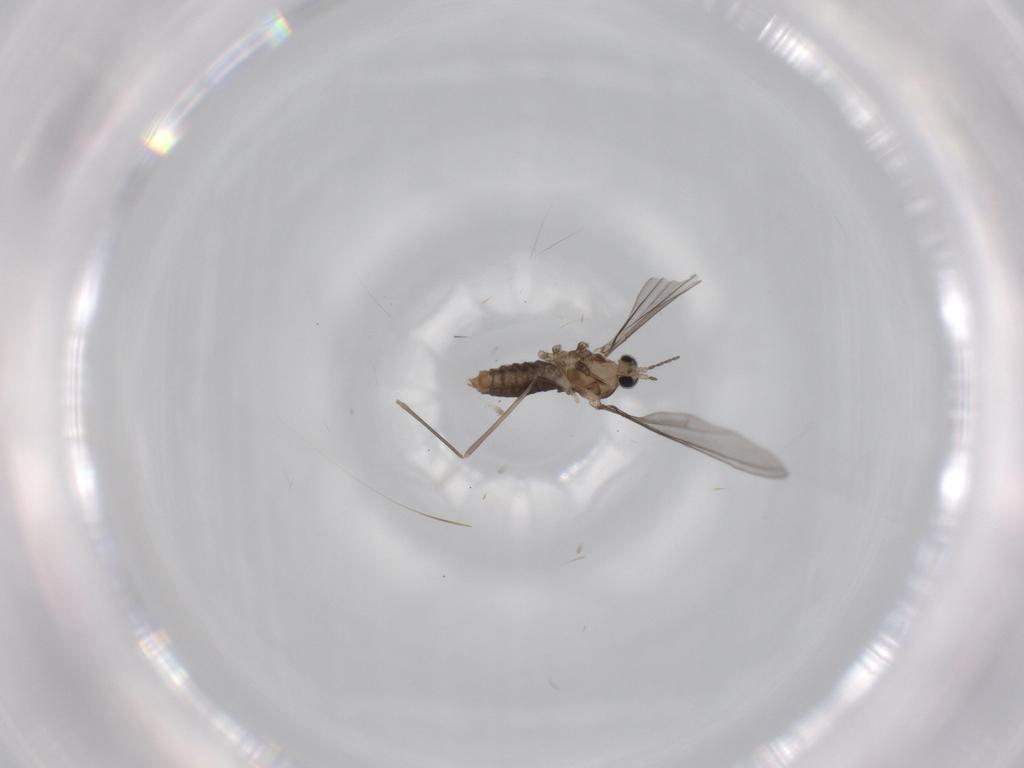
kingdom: Animalia
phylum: Arthropoda
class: Insecta
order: Diptera
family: Cecidomyiidae
